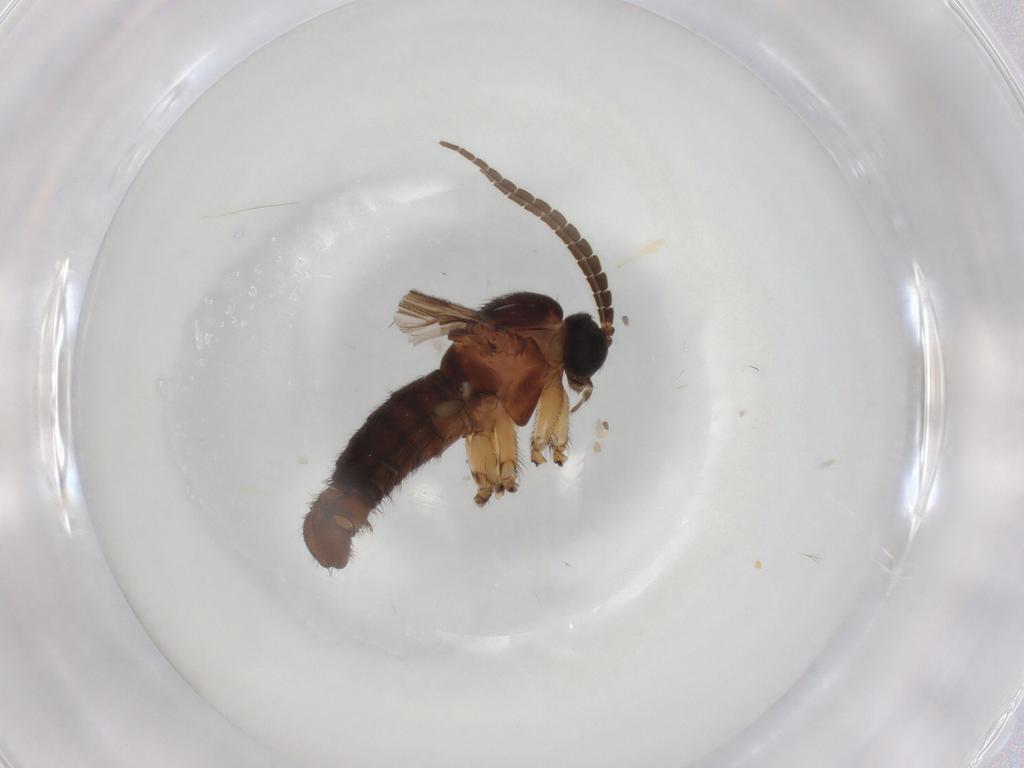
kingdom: Animalia
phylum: Arthropoda
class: Insecta
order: Diptera
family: Sciaridae
